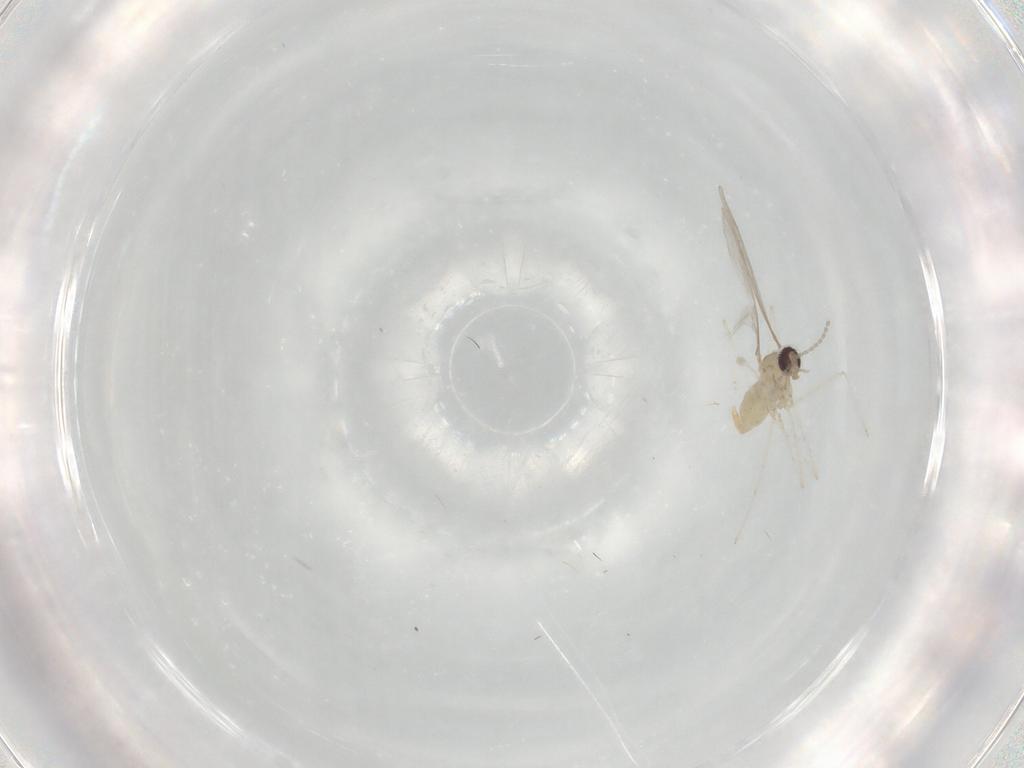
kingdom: Animalia
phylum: Arthropoda
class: Insecta
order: Diptera
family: Cecidomyiidae
